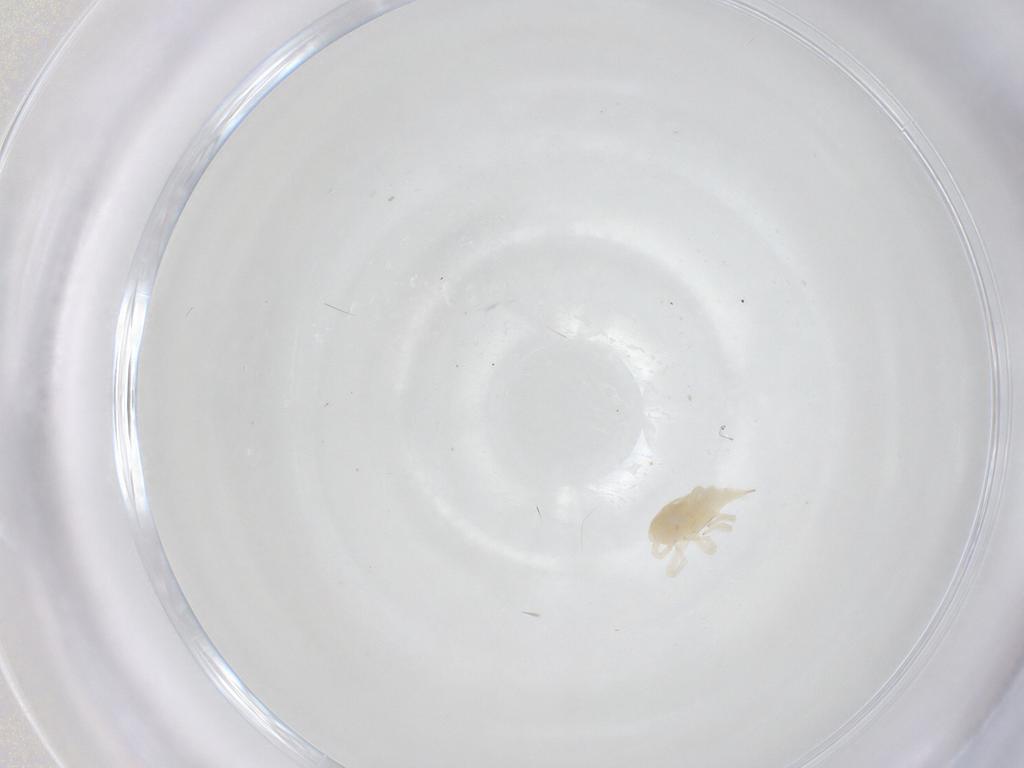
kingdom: Animalia
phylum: Arthropoda
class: Arachnida
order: Trombidiformes
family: Bdellidae
